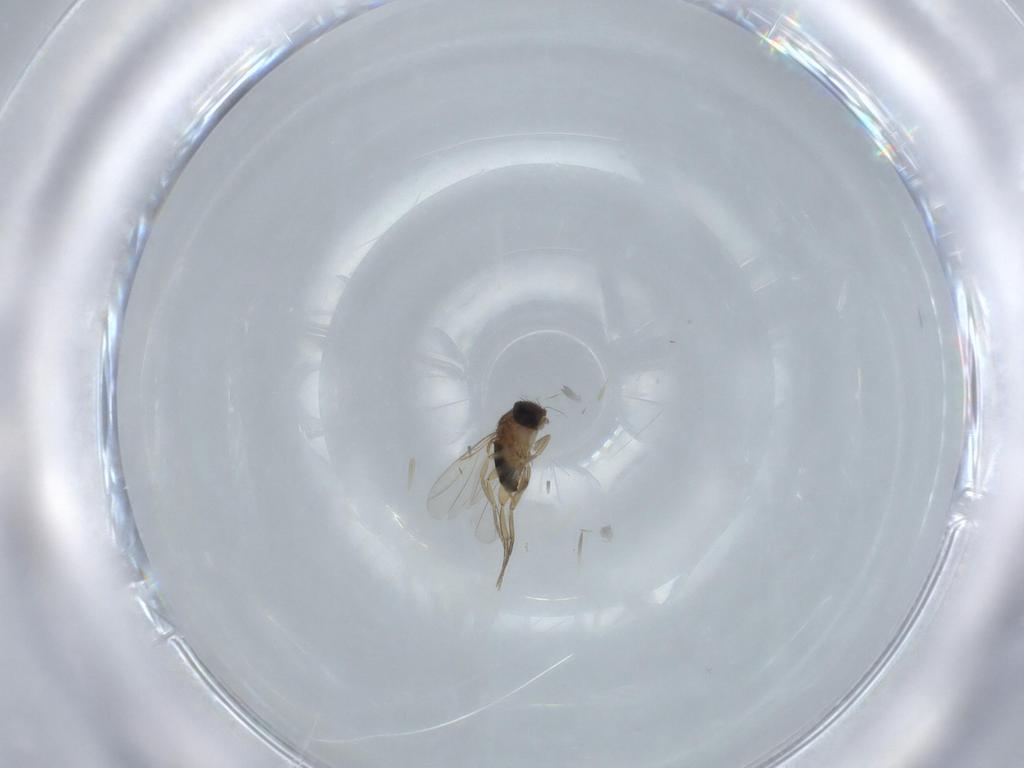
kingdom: Animalia
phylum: Arthropoda
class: Insecta
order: Diptera
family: Phoridae
